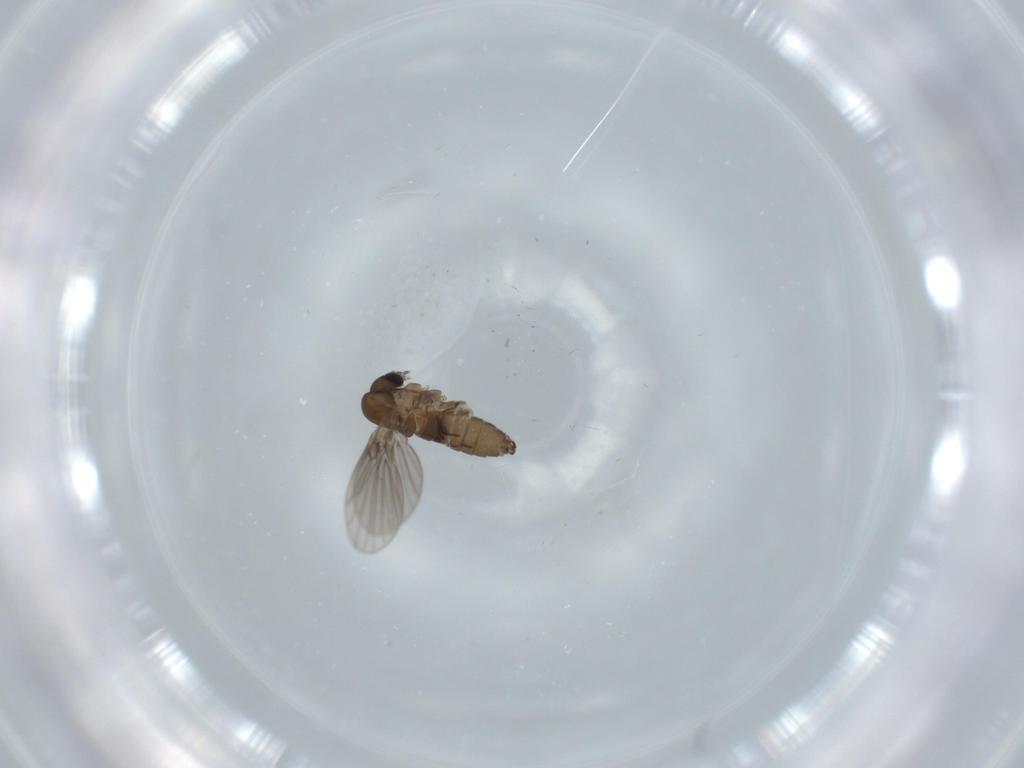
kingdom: Animalia
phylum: Arthropoda
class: Insecta
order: Diptera
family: Psychodidae
